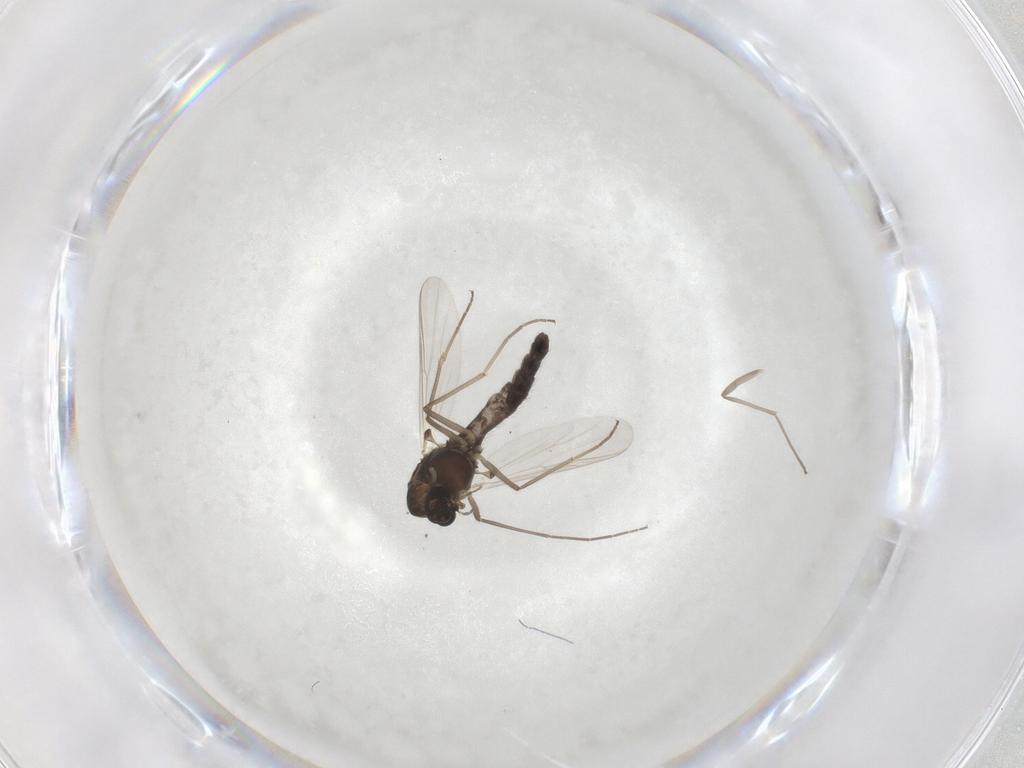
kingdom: Animalia
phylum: Arthropoda
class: Insecta
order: Diptera
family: Chironomidae
